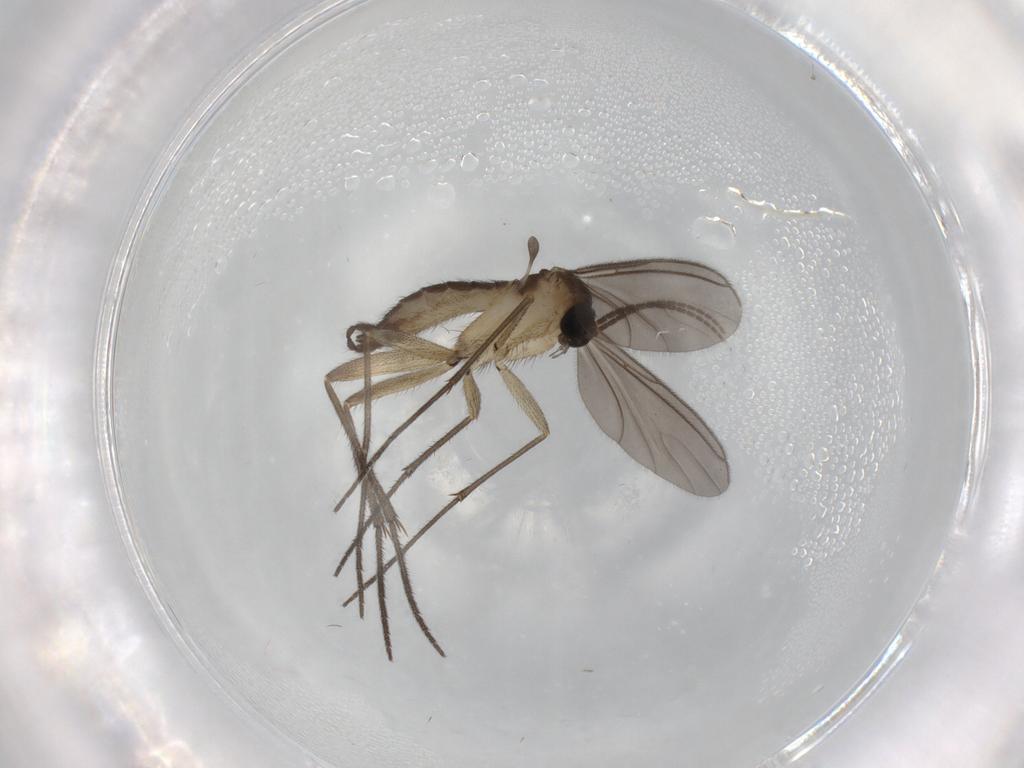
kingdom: Animalia
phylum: Arthropoda
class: Insecta
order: Diptera
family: Sciaridae
